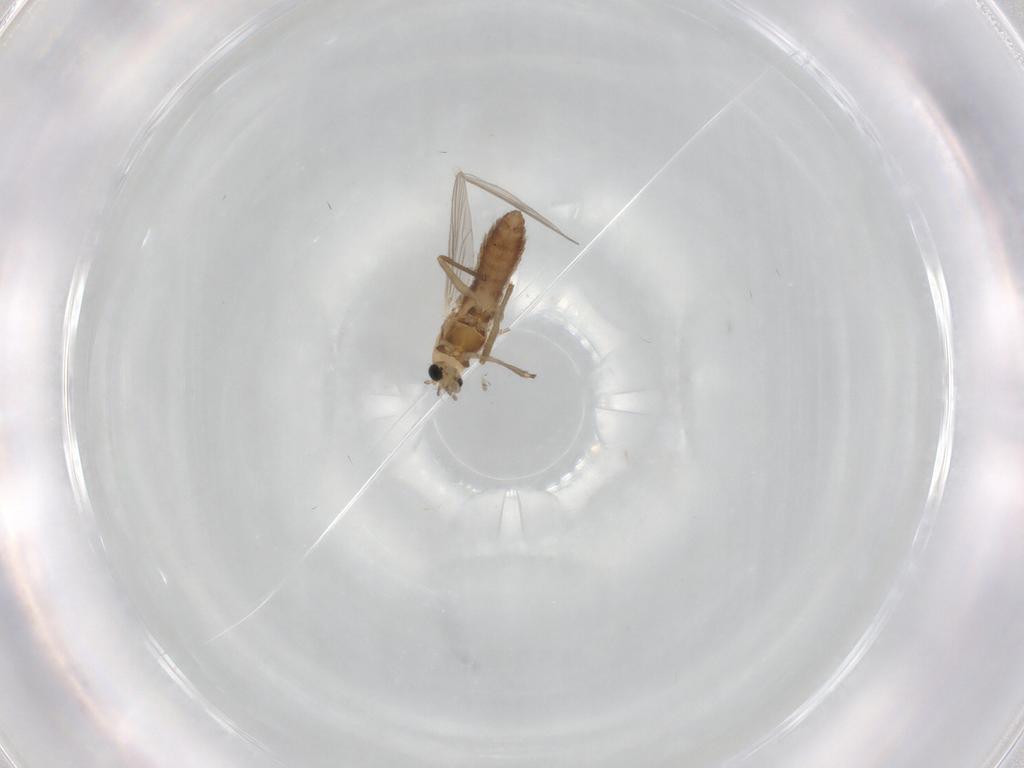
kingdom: Animalia
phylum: Arthropoda
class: Insecta
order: Diptera
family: Chironomidae
